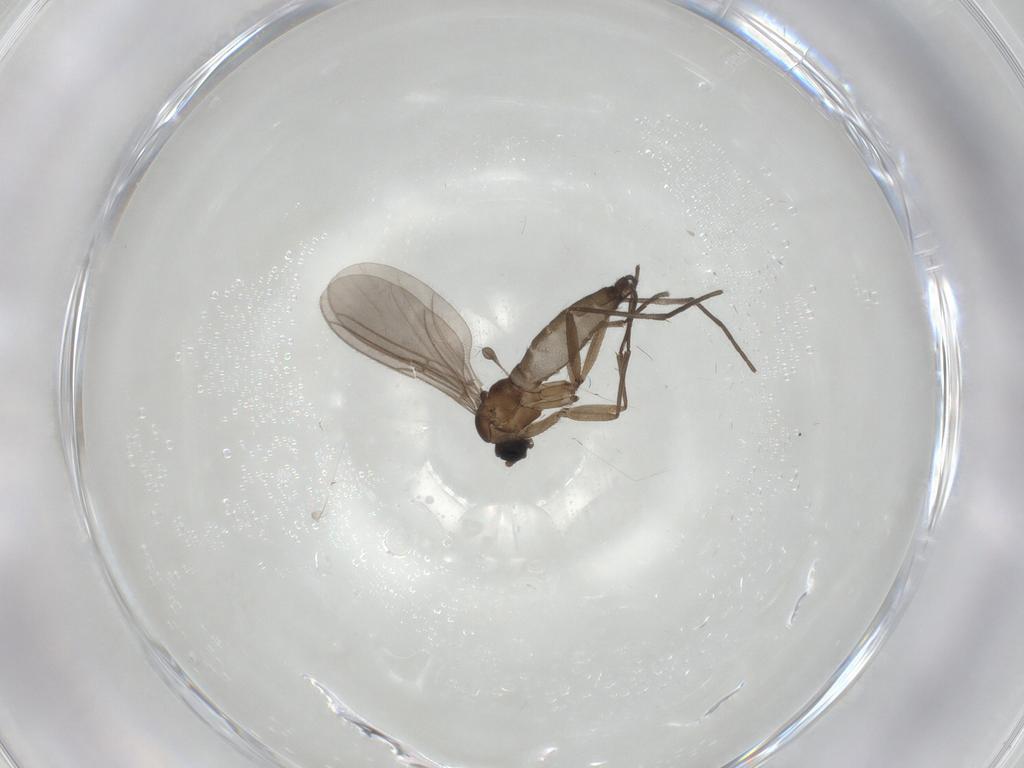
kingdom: Animalia
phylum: Arthropoda
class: Insecta
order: Diptera
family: Sciaridae
